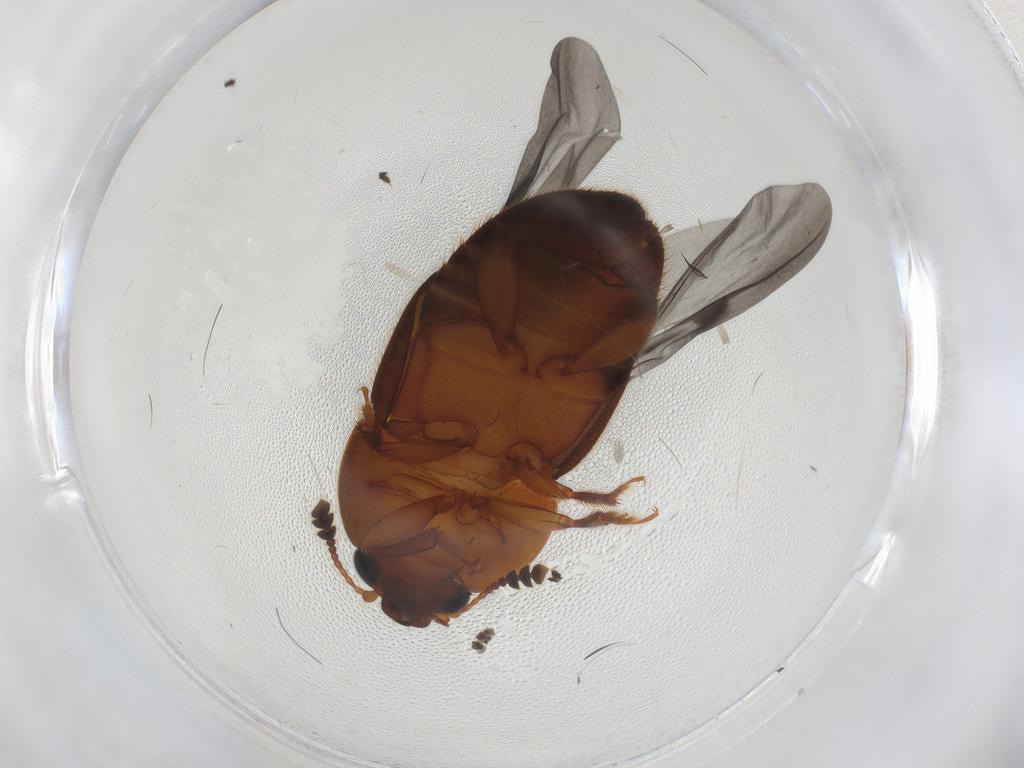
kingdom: Animalia
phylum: Arthropoda
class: Insecta
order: Coleoptera
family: Nitidulidae
